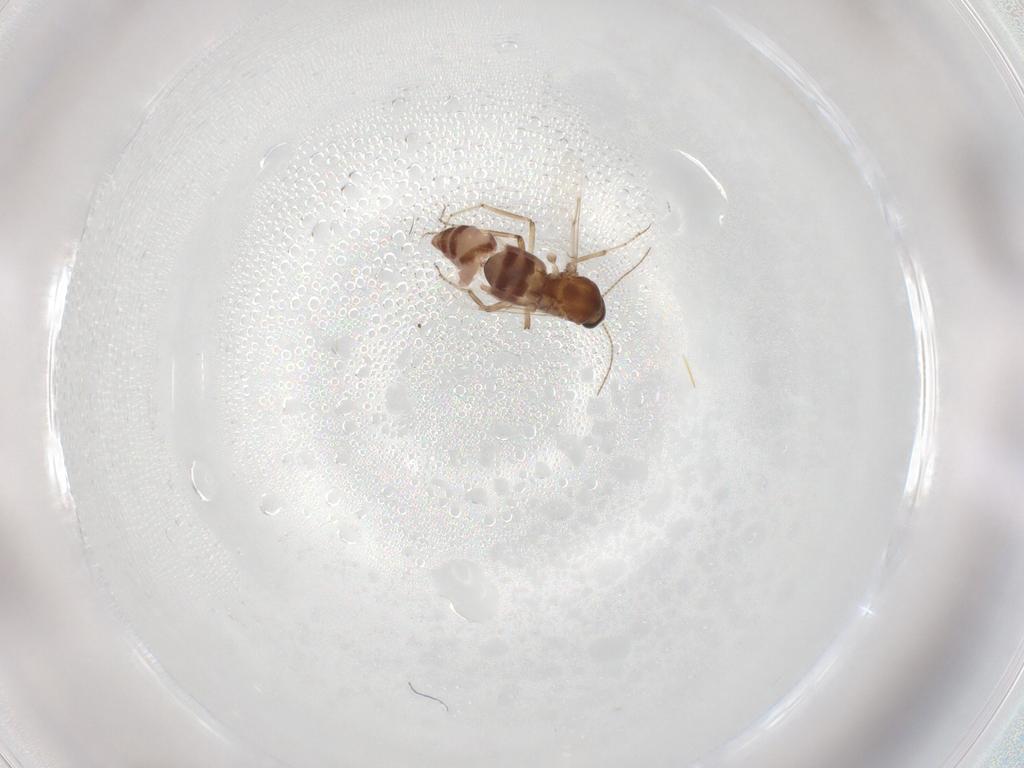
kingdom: Animalia
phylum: Arthropoda
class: Insecta
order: Diptera
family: Ceratopogonidae
